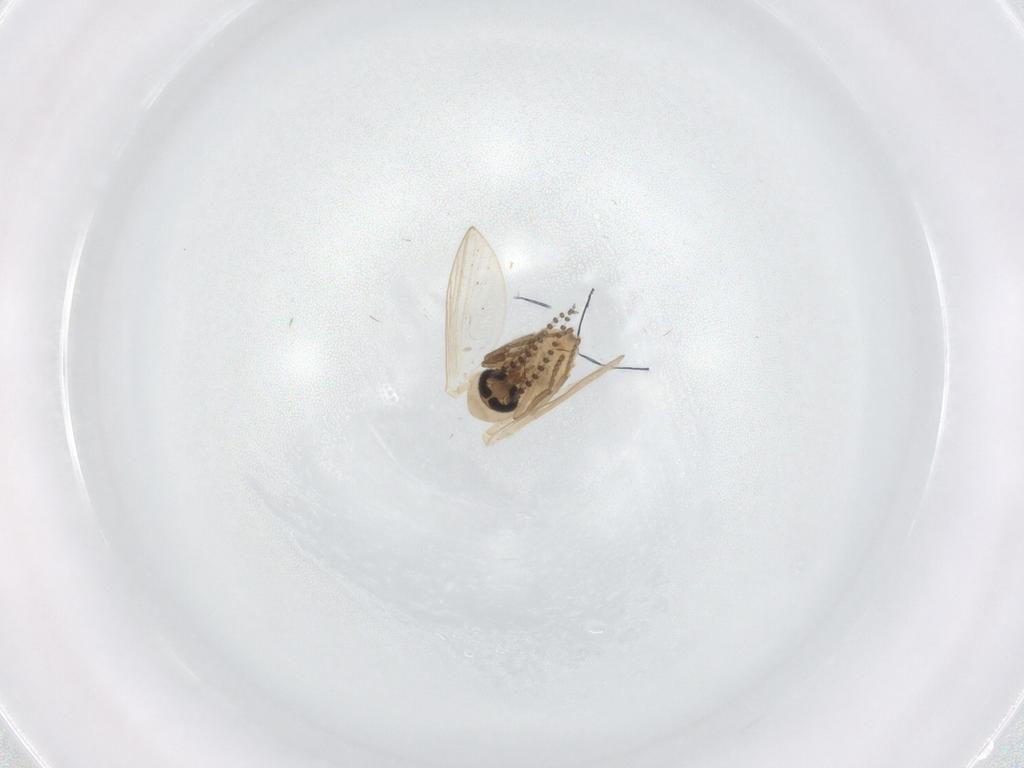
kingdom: Animalia
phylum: Arthropoda
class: Insecta
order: Diptera
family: Psychodidae
